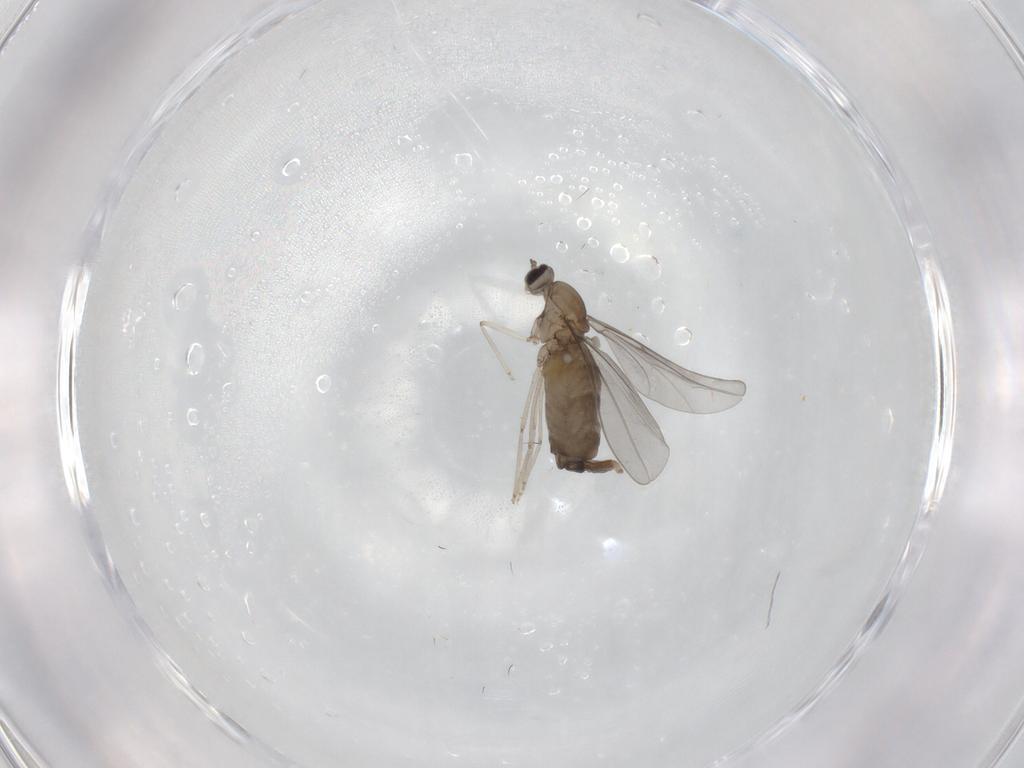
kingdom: Animalia
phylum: Arthropoda
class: Insecta
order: Diptera
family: Cecidomyiidae
